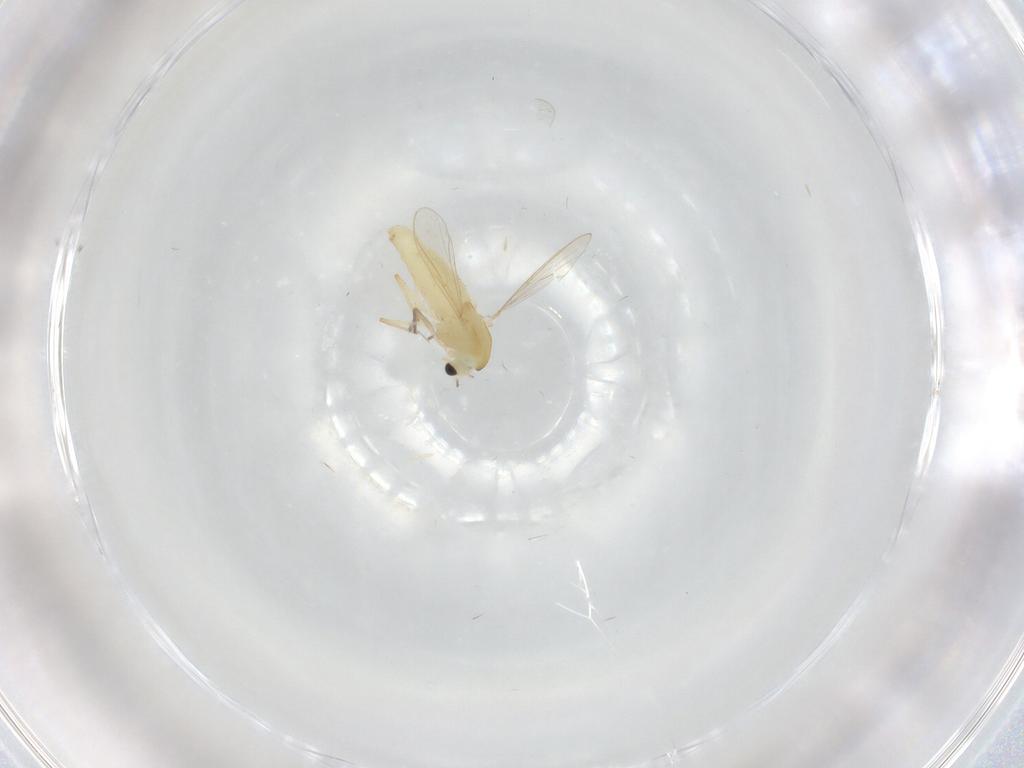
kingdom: Animalia
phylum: Arthropoda
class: Insecta
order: Diptera
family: Chironomidae
